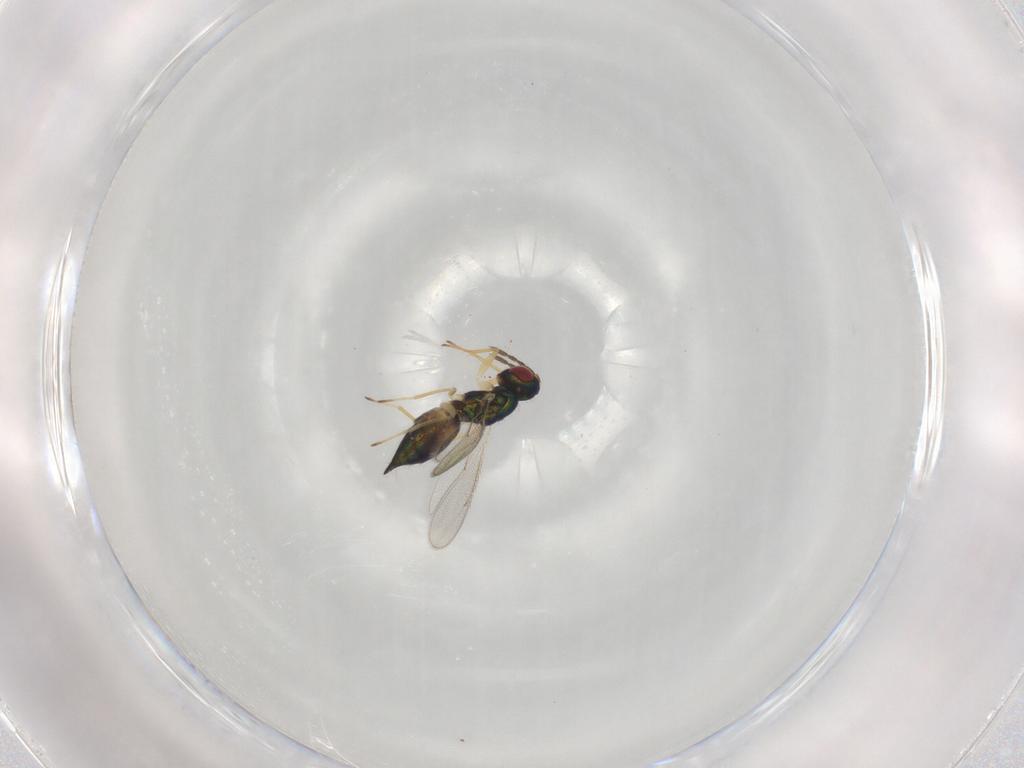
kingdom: Animalia
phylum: Arthropoda
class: Insecta
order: Hymenoptera
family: Eulophidae
